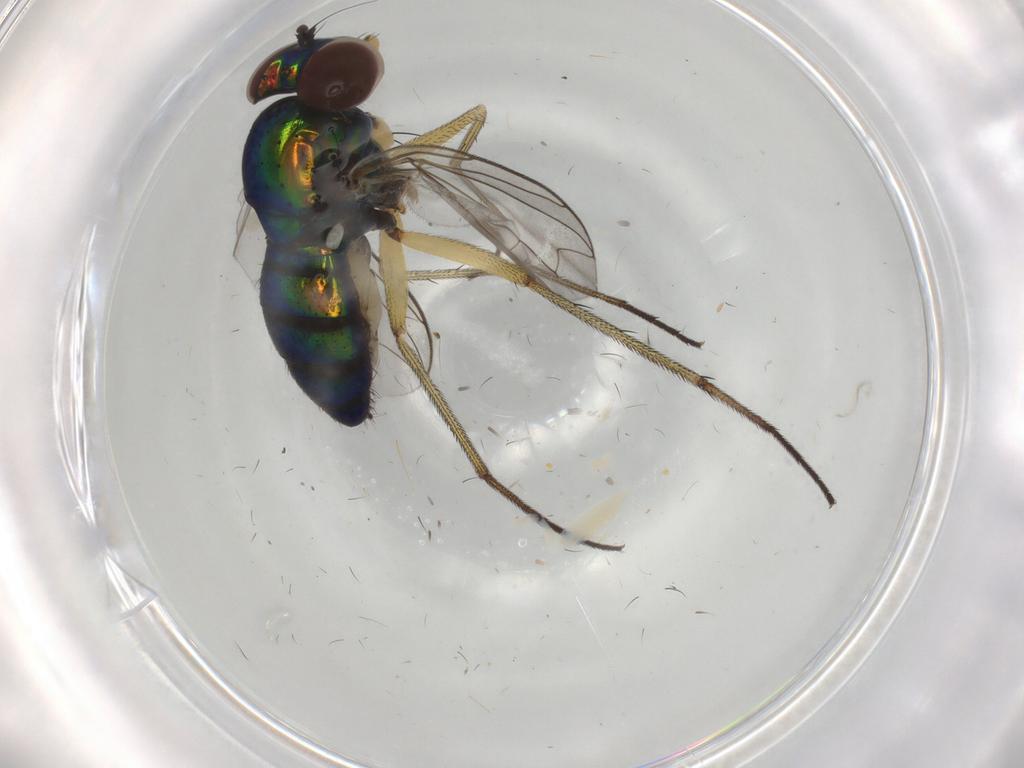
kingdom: Animalia
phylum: Arthropoda
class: Insecta
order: Diptera
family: Dolichopodidae
